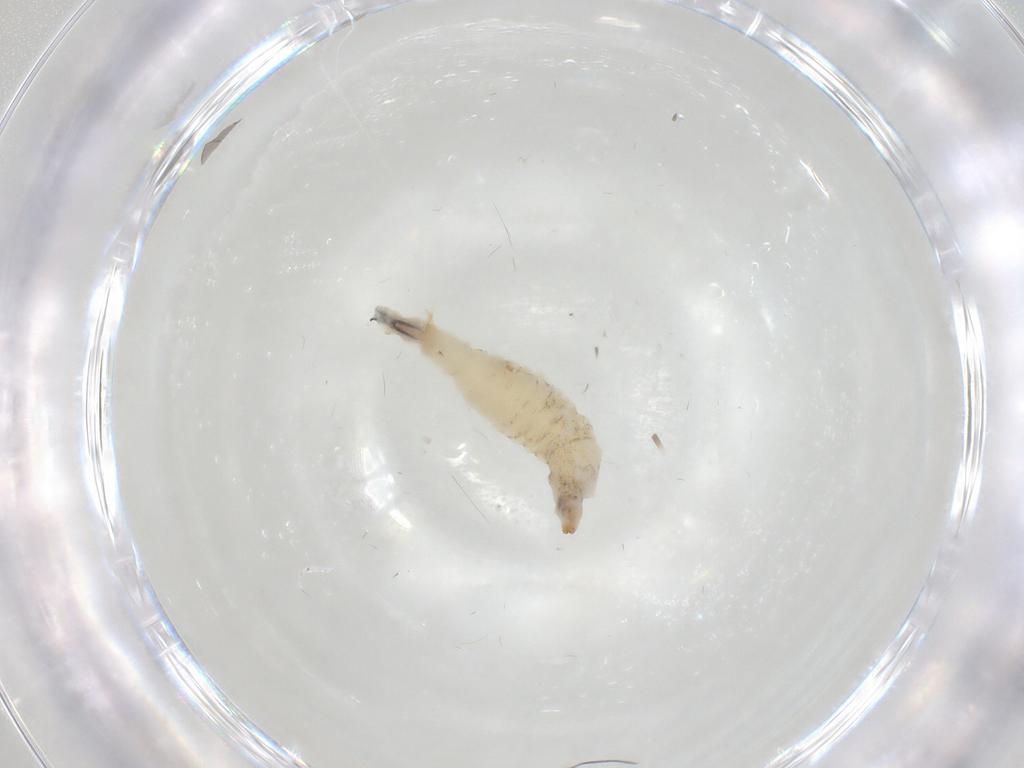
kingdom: Animalia
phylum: Arthropoda
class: Insecta
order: Diptera
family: Drosophilidae
